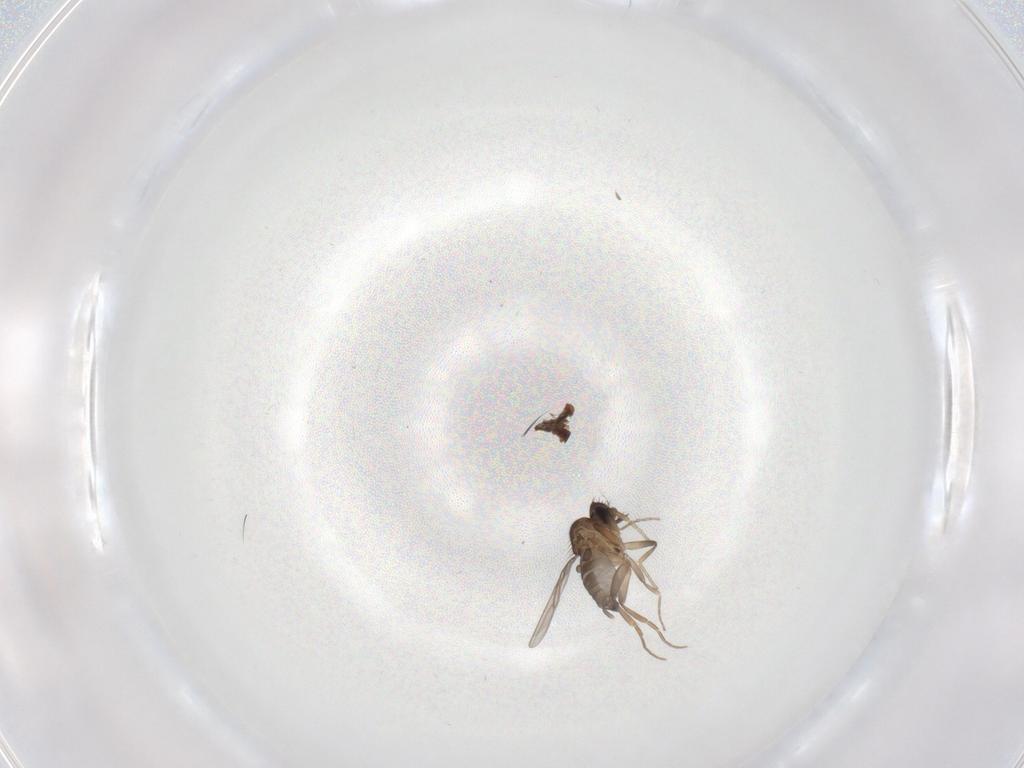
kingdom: Animalia
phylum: Arthropoda
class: Insecta
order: Diptera
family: Ceratopogonidae
